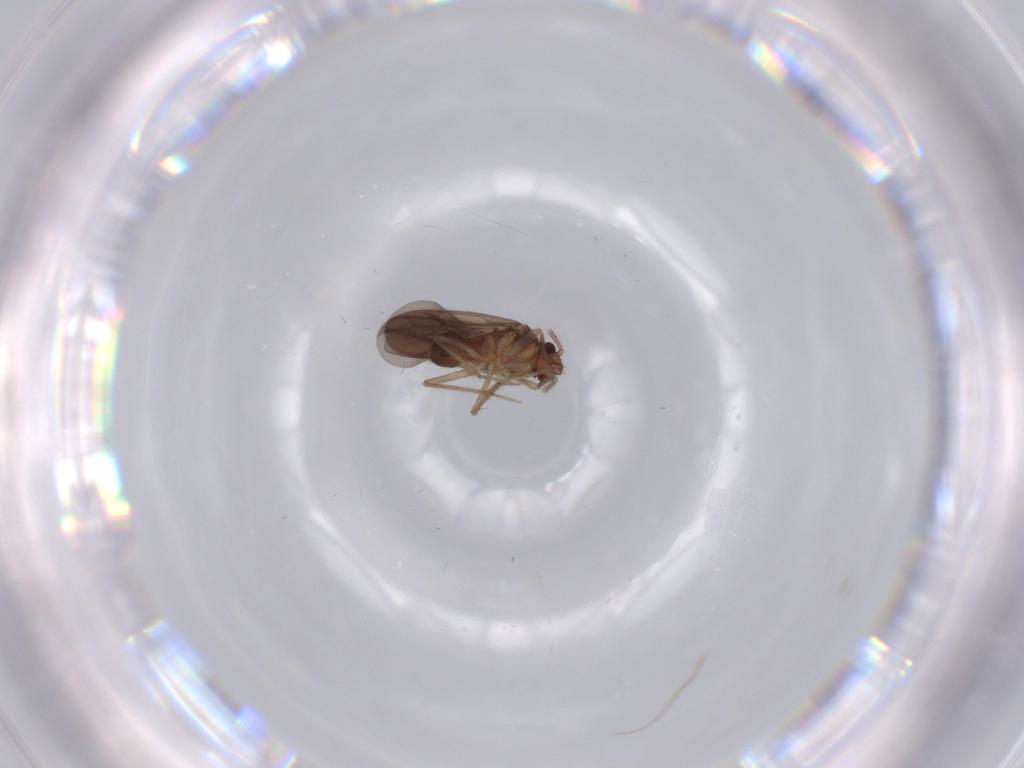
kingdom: Animalia
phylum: Arthropoda
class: Insecta
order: Hemiptera
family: Ceratocombidae
